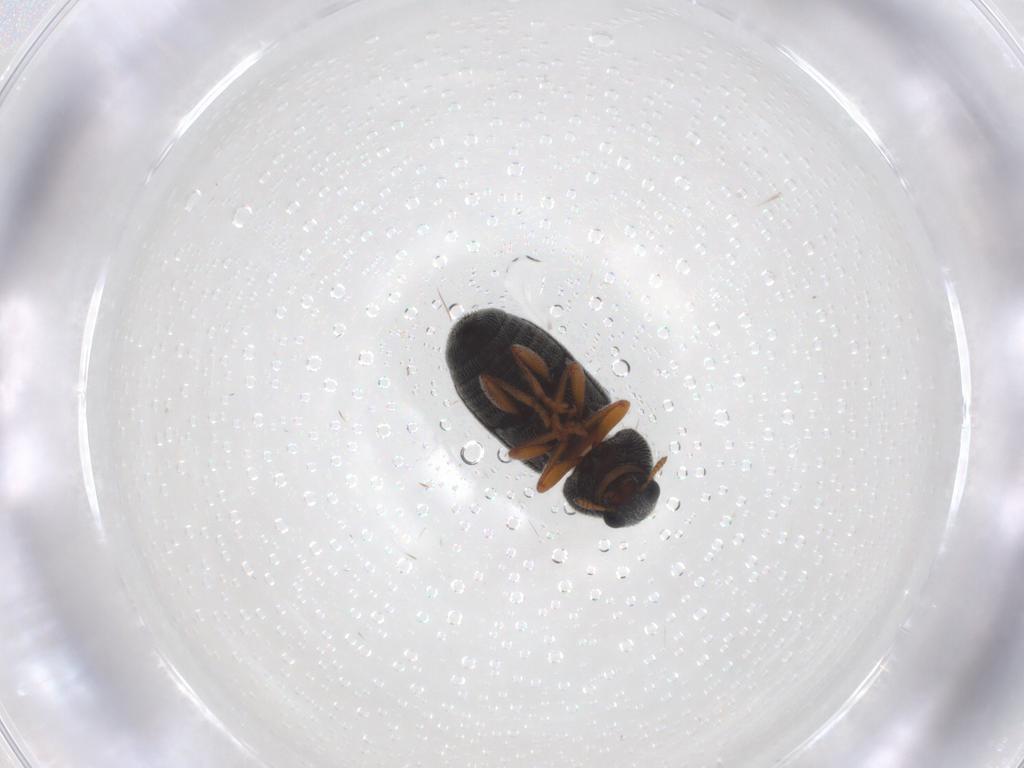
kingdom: Animalia
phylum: Arthropoda
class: Insecta
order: Coleoptera
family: Anthribidae
